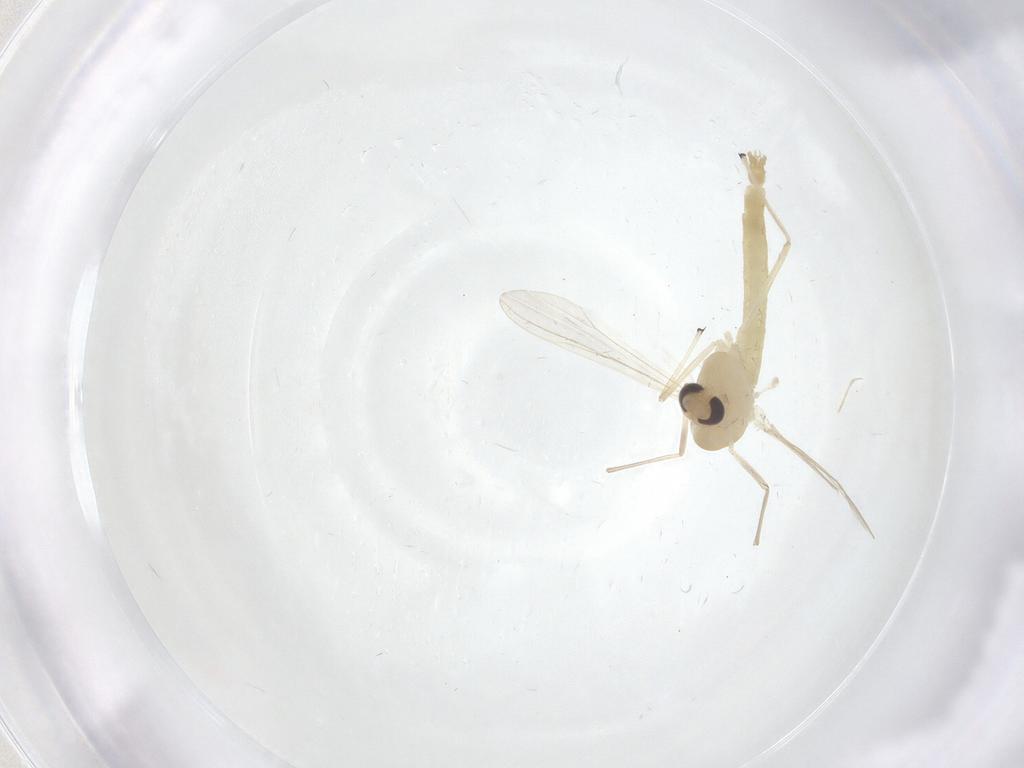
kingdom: Animalia
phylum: Arthropoda
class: Insecta
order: Diptera
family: Chironomidae
